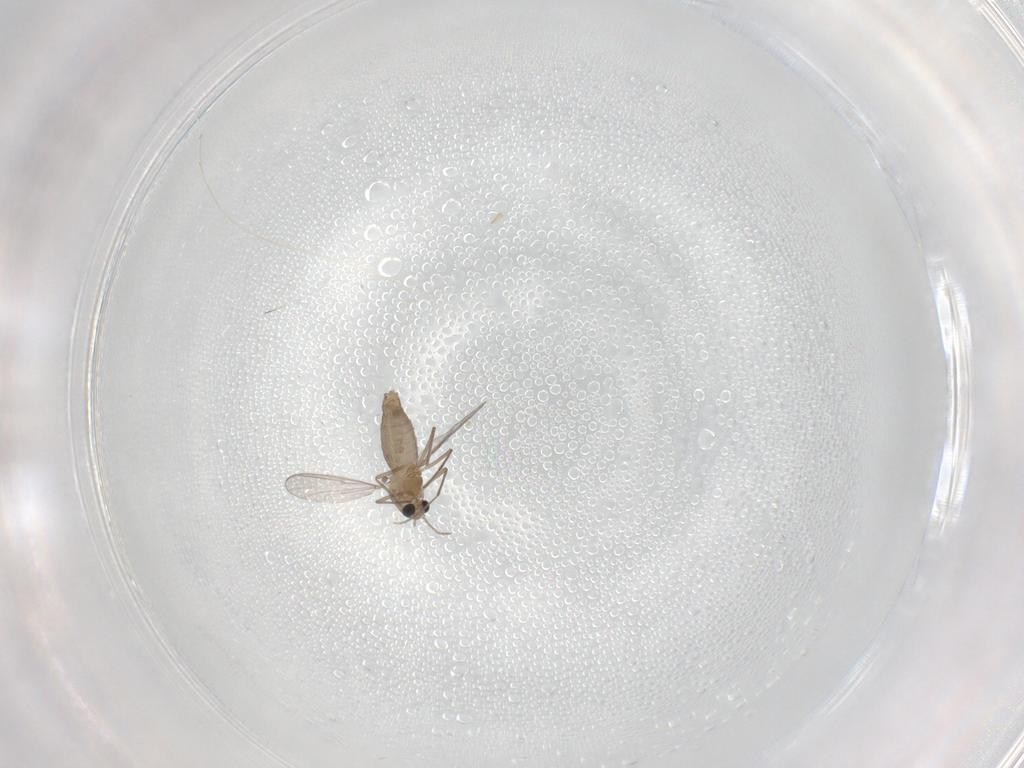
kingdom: Animalia
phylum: Arthropoda
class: Insecta
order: Diptera
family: Chironomidae
